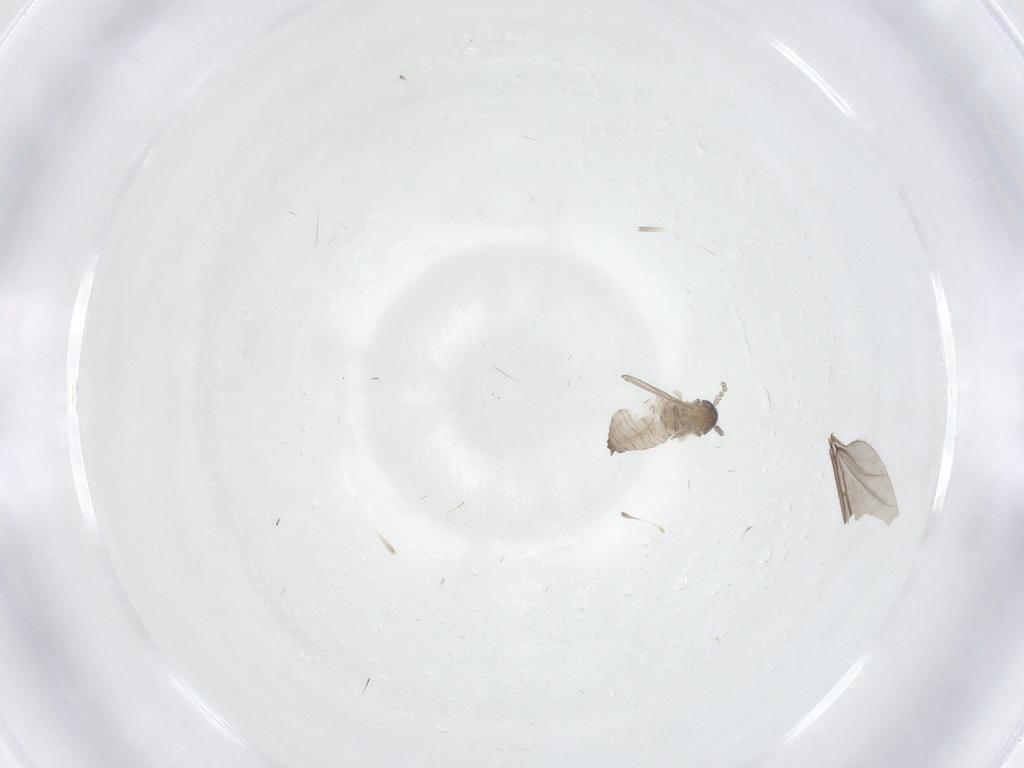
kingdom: Animalia
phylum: Arthropoda
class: Insecta
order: Diptera
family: Psychodidae
